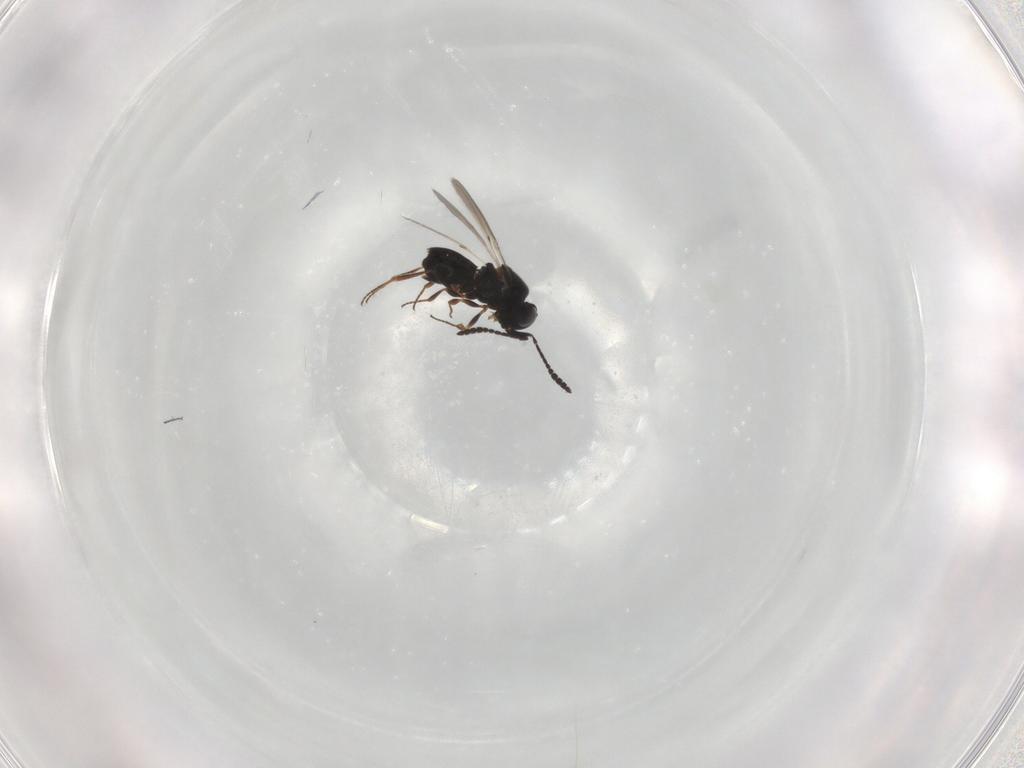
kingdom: Animalia
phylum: Arthropoda
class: Insecta
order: Hymenoptera
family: Scelionidae
